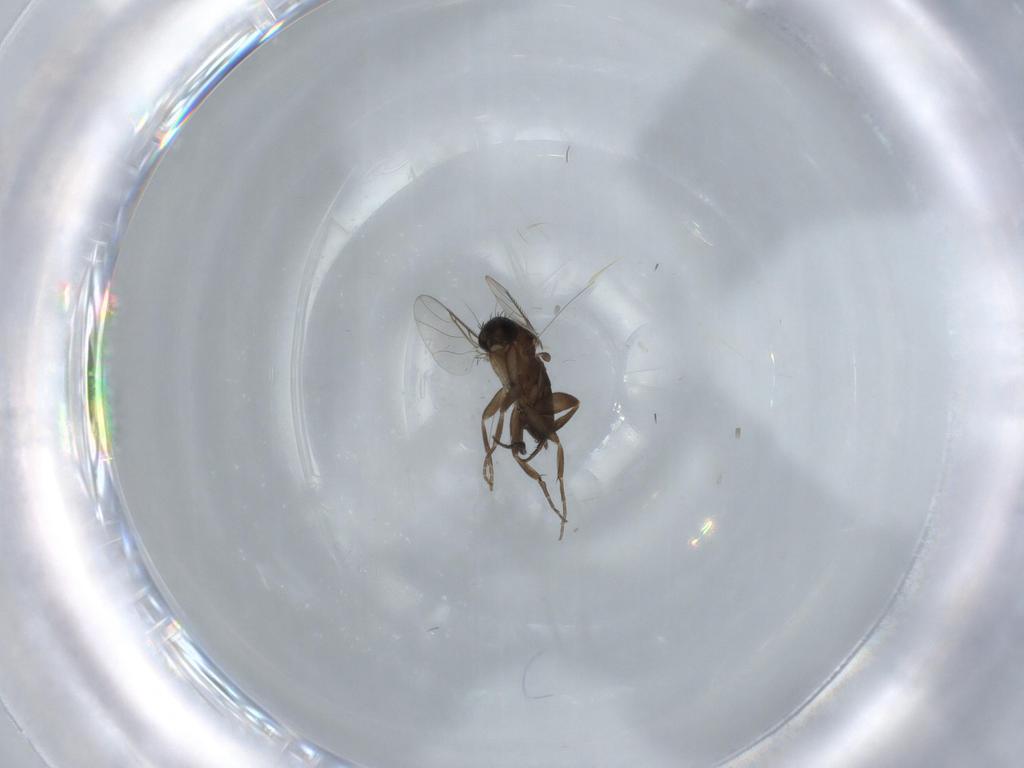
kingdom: Animalia
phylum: Arthropoda
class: Insecta
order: Diptera
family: Phoridae
